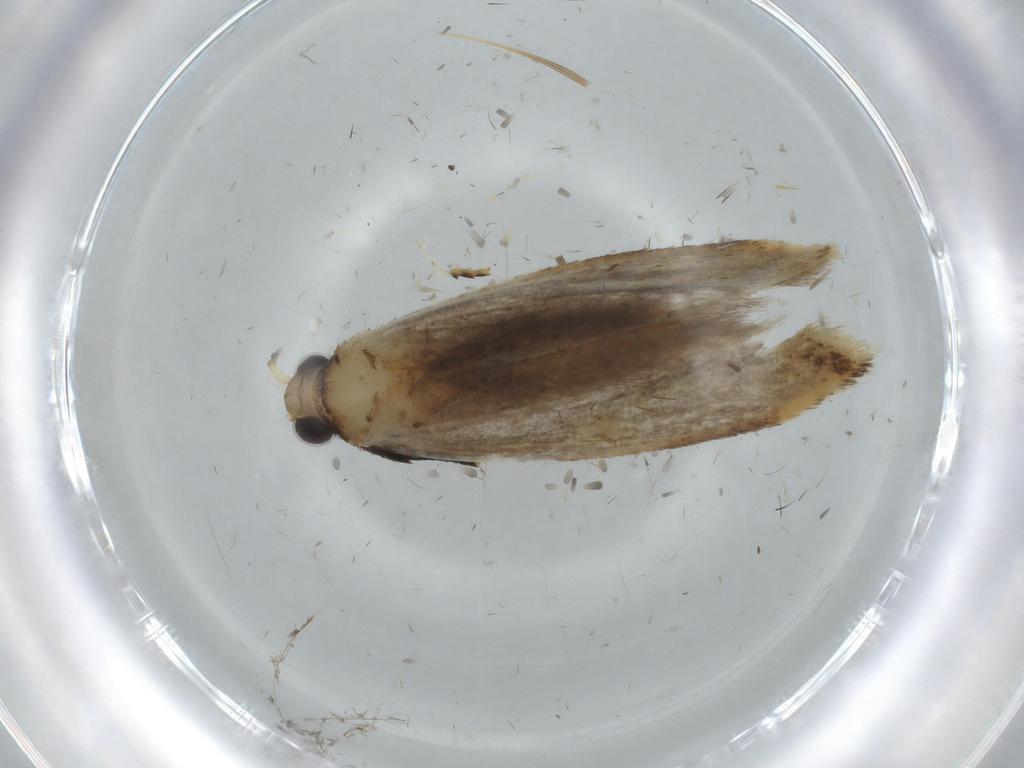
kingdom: Animalia
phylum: Arthropoda
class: Insecta
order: Lepidoptera
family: Tineidae
